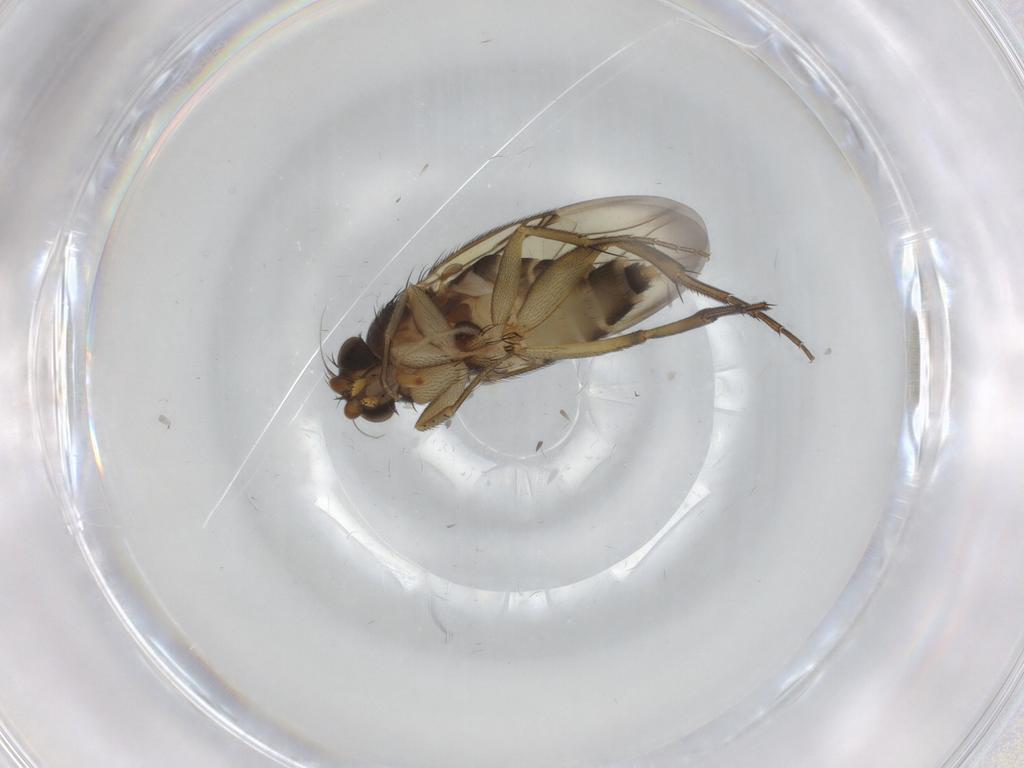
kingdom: Animalia
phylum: Arthropoda
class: Insecta
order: Diptera
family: Phoridae
